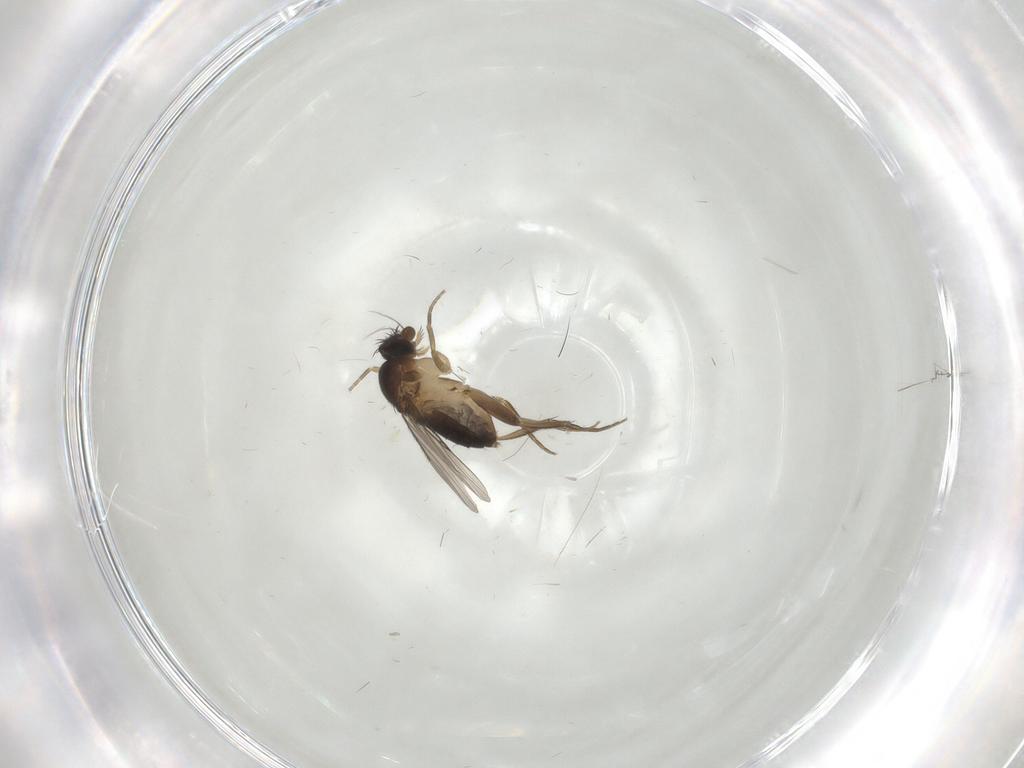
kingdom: Animalia
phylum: Arthropoda
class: Insecta
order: Diptera
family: Phoridae
